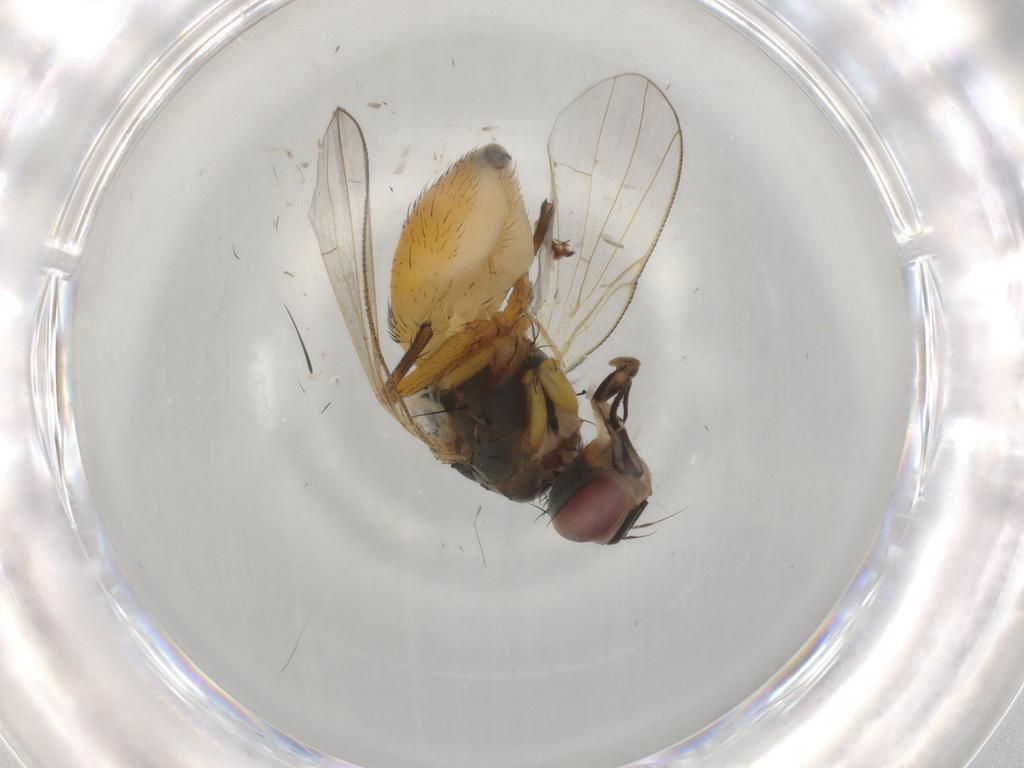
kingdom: Animalia
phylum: Arthropoda
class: Insecta
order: Diptera
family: Muscidae
